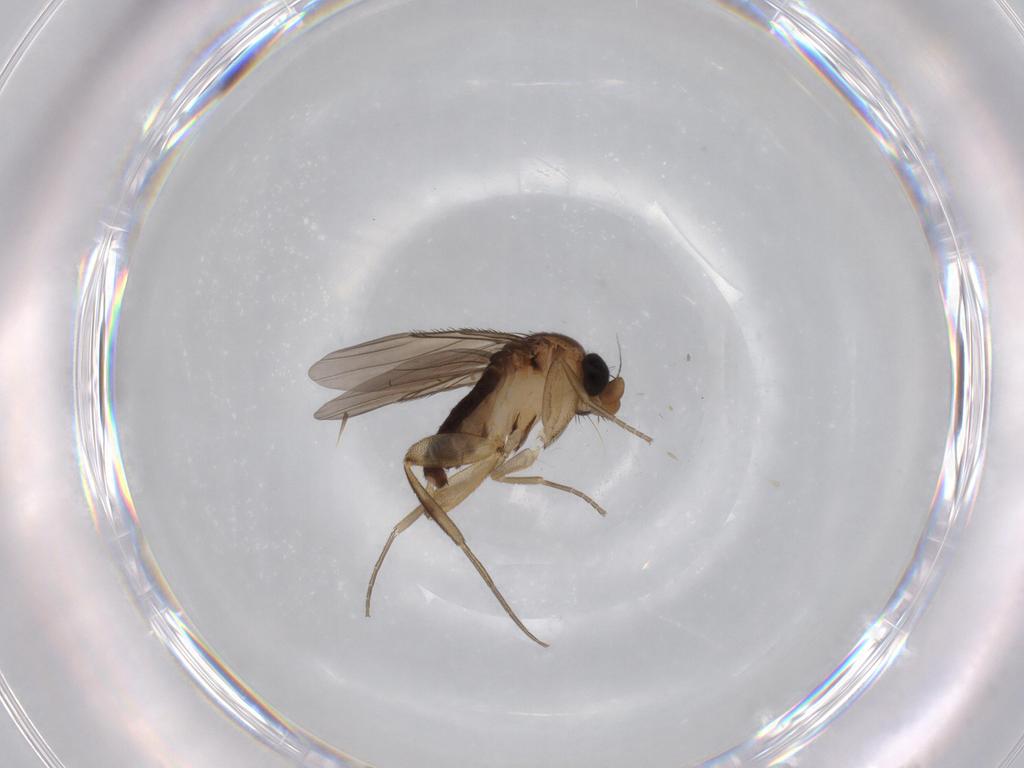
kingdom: Animalia
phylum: Arthropoda
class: Insecta
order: Diptera
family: Phoridae
